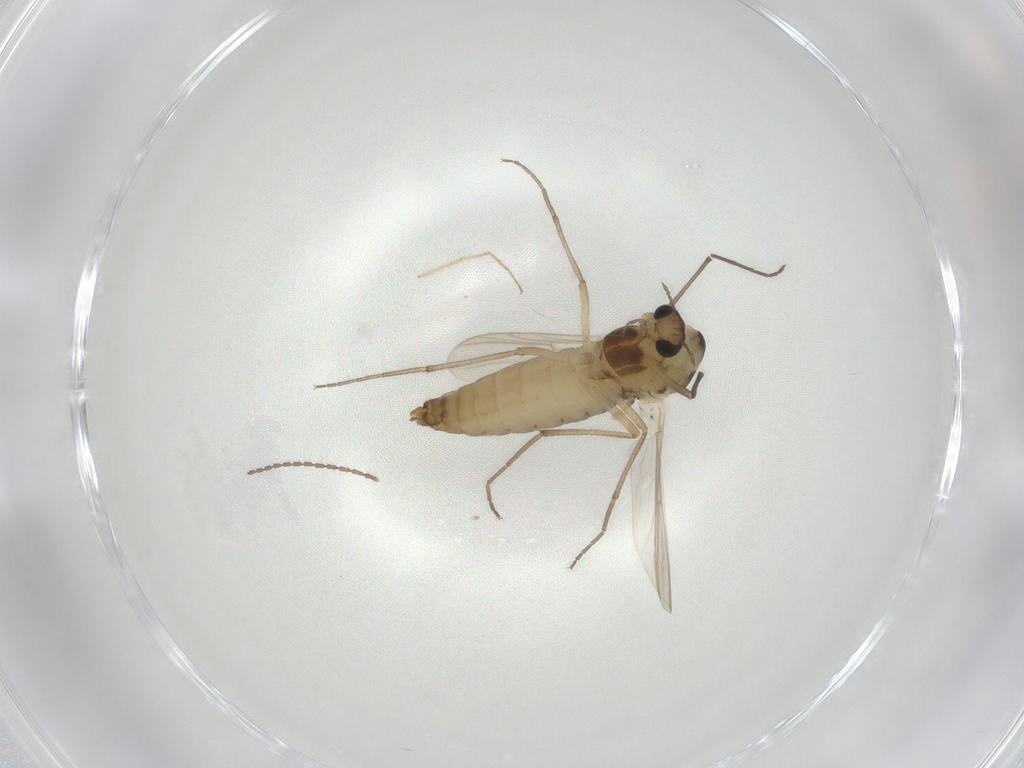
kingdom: Animalia
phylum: Arthropoda
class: Insecta
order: Diptera
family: Chironomidae
